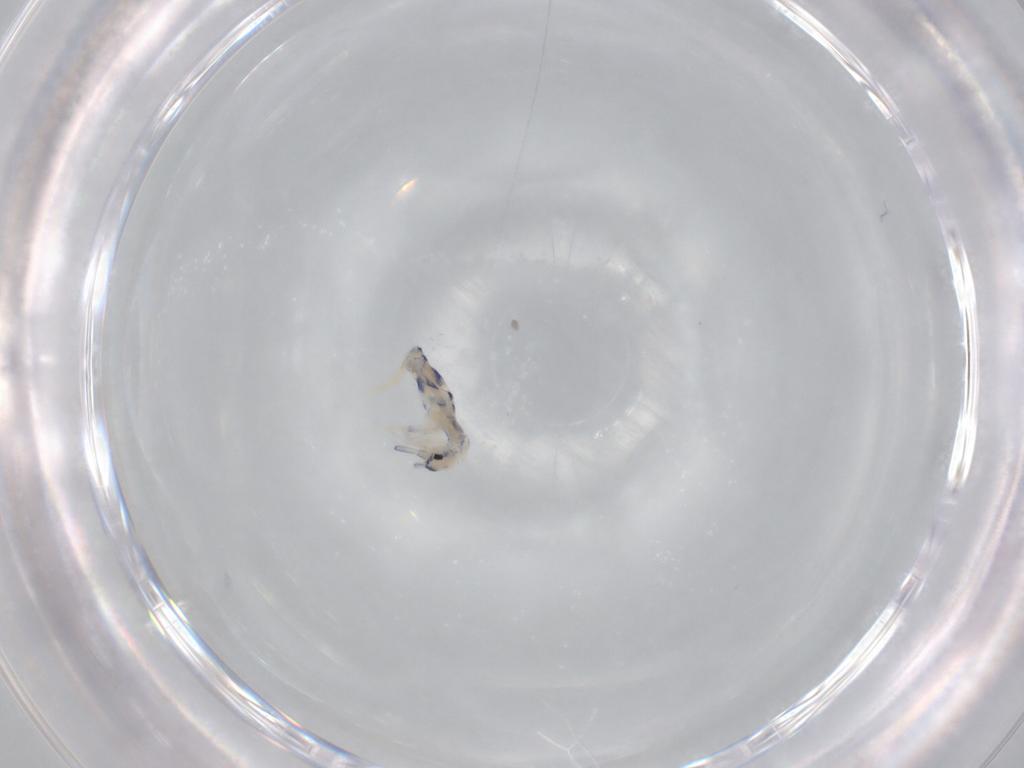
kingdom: Animalia
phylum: Arthropoda
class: Collembola
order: Entomobryomorpha
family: Entomobryidae
